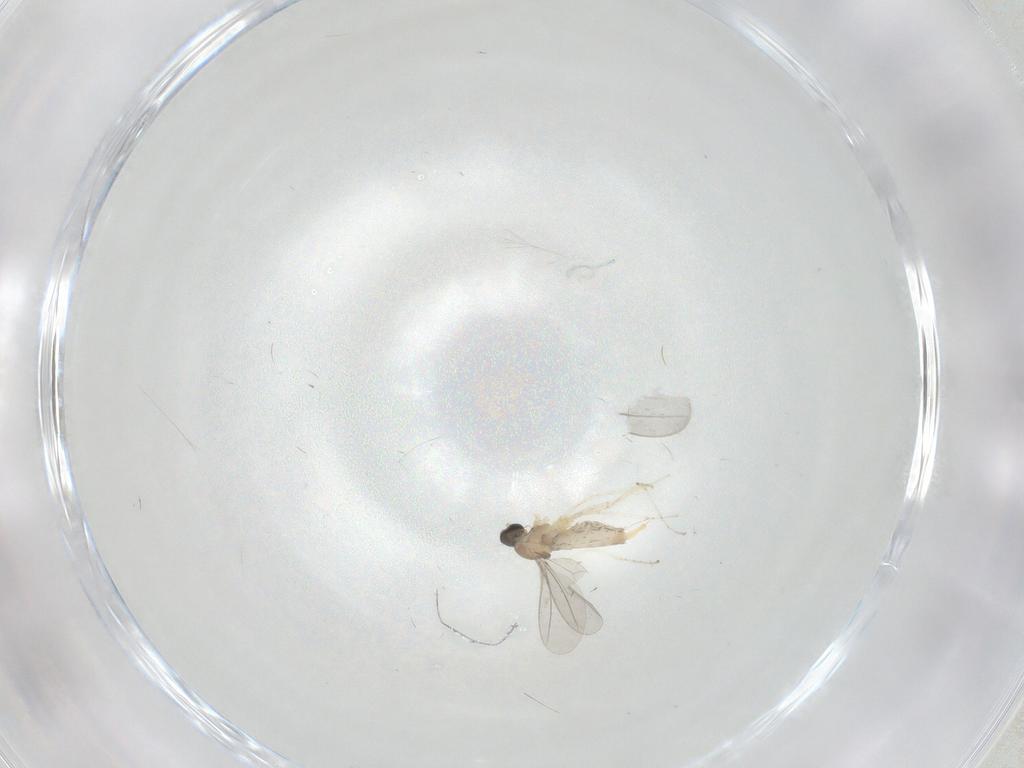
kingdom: Animalia
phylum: Arthropoda
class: Insecta
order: Diptera
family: Cecidomyiidae
